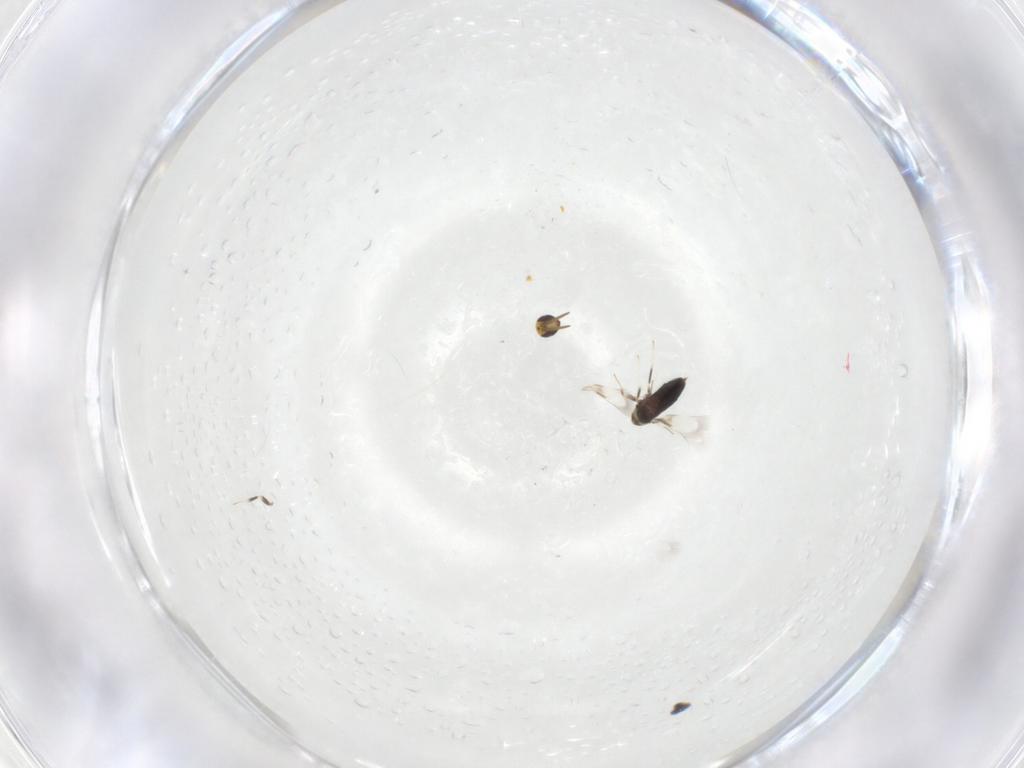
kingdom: Animalia
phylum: Arthropoda
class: Insecta
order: Hymenoptera
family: Signiphoridae
